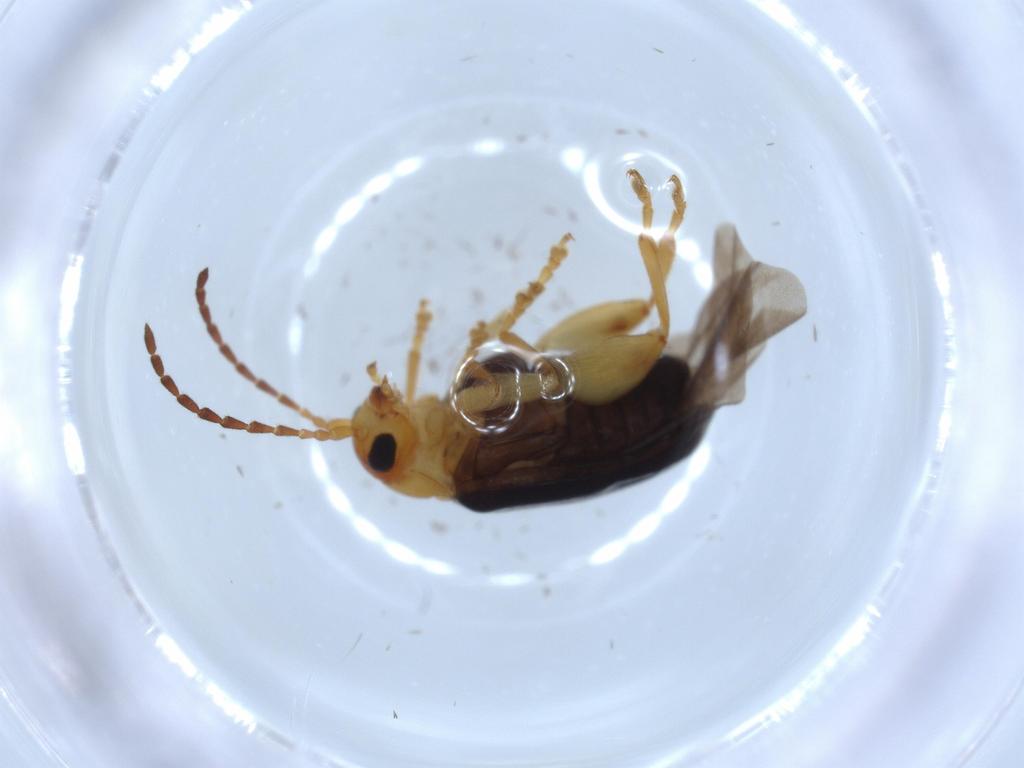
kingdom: Animalia
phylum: Arthropoda
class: Insecta
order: Coleoptera
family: Chrysomelidae
